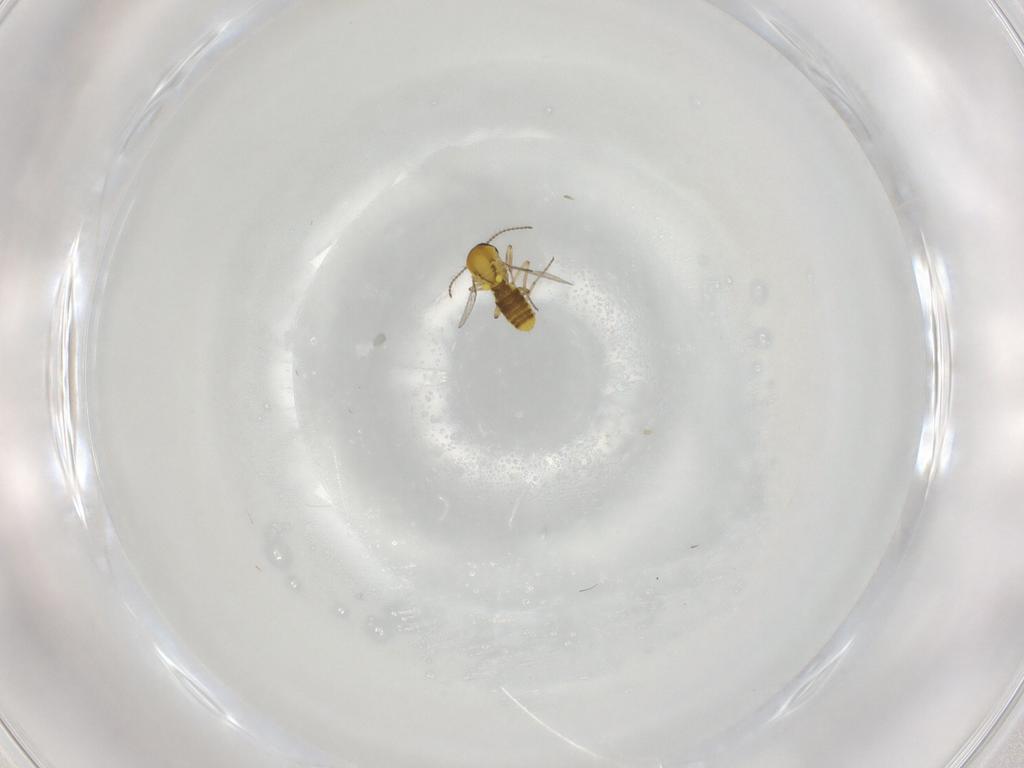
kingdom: Animalia
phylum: Arthropoda
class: Insecta
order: Diptera
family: Ceratopogonidae
